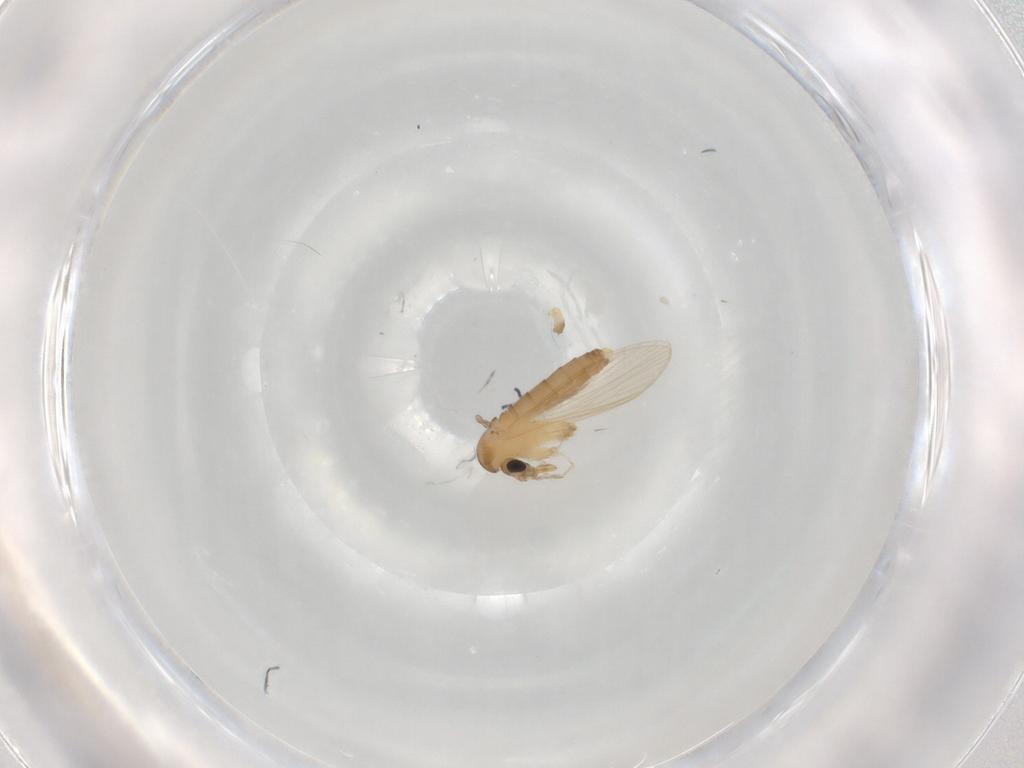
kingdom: Animalia
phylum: Arthropoda
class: Insecta
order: Diptera
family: Psychodidae
